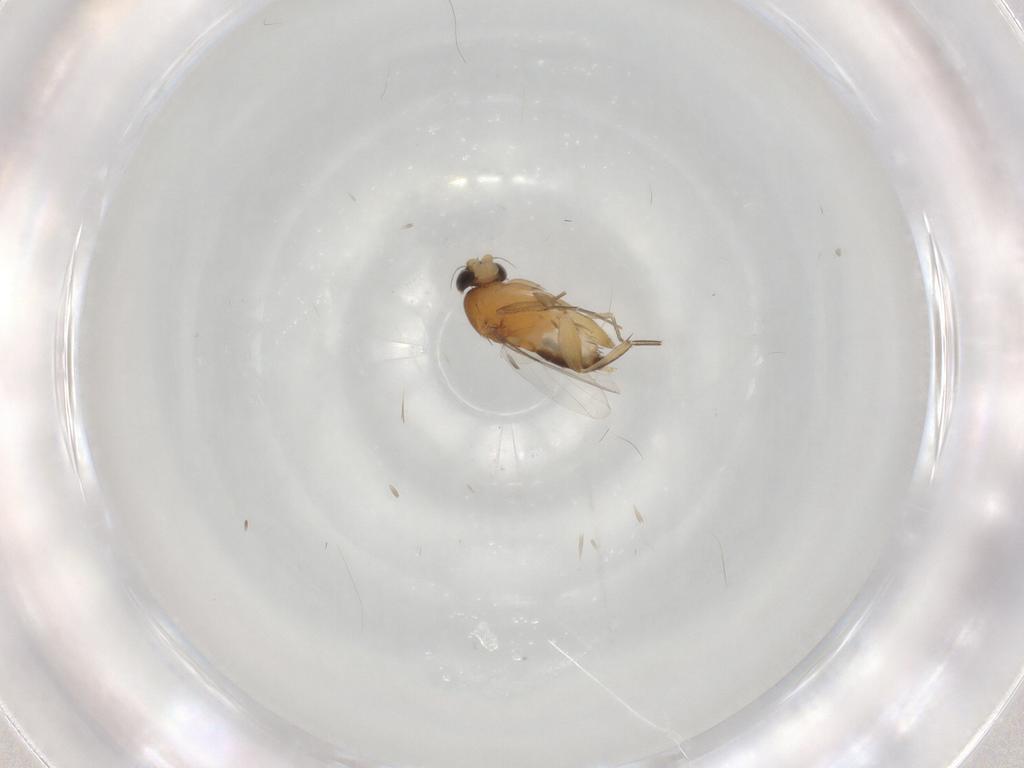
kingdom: Animalia
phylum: Arthropoda
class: Insecta
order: Diptera
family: Phoridae
